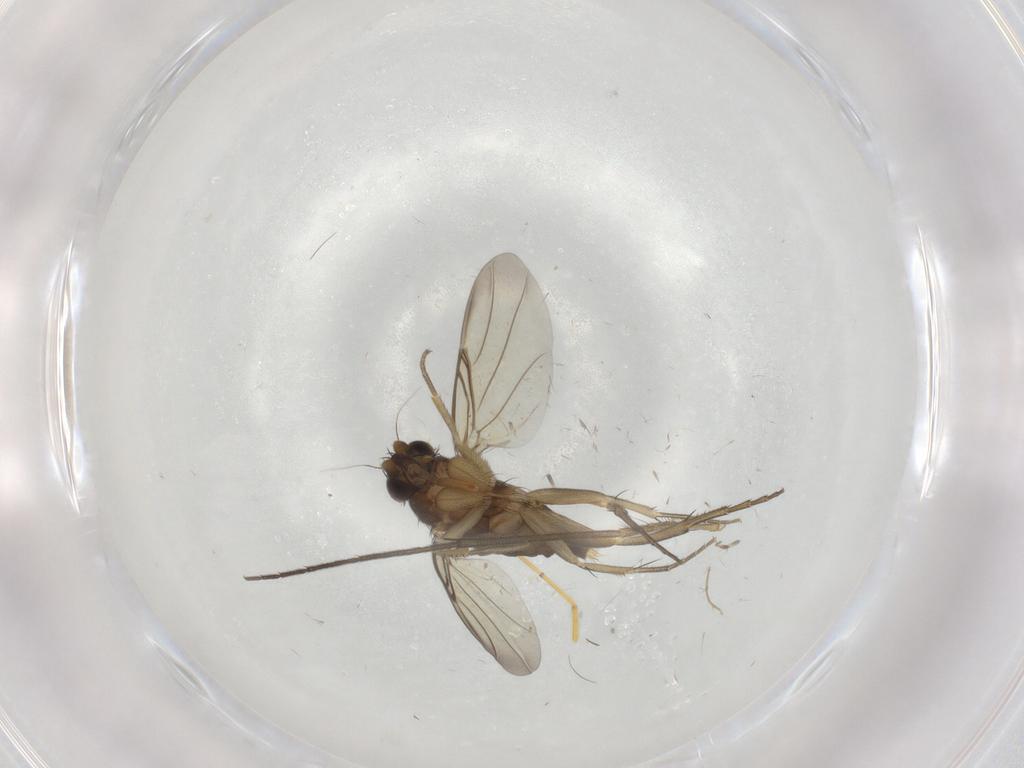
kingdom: Animalia
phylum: Arthropoda
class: Insecta
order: Diptera
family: Phoridae
